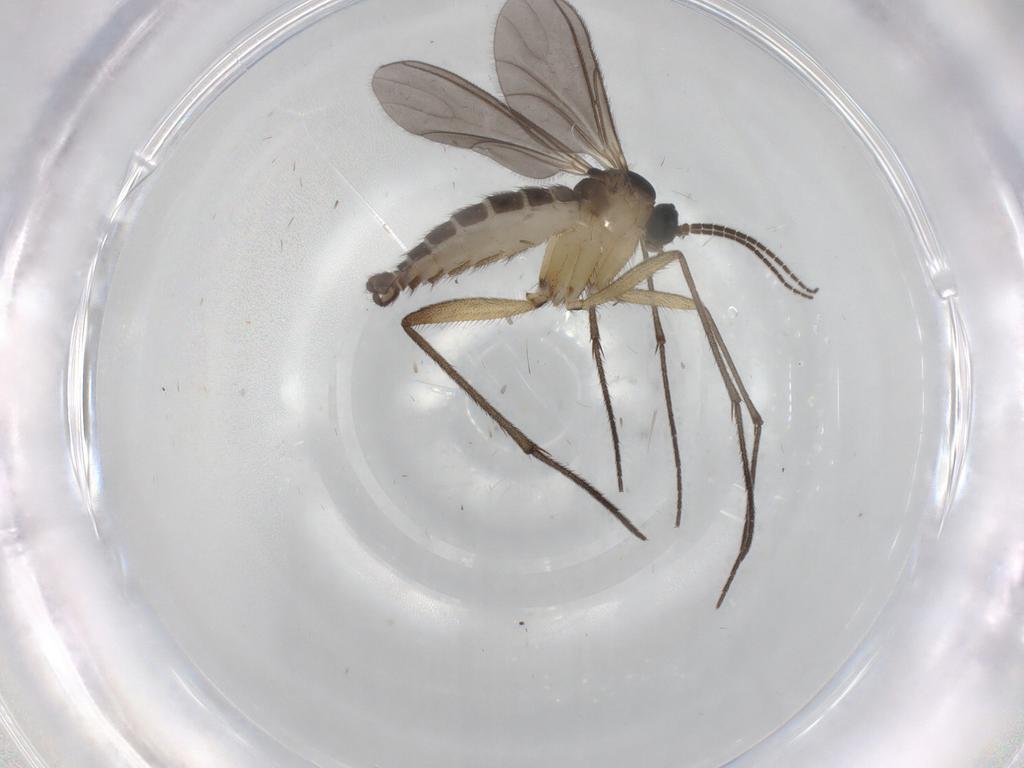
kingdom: Animalia
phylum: Arthropoda
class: Insecta
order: Diptera
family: Sciaridae
